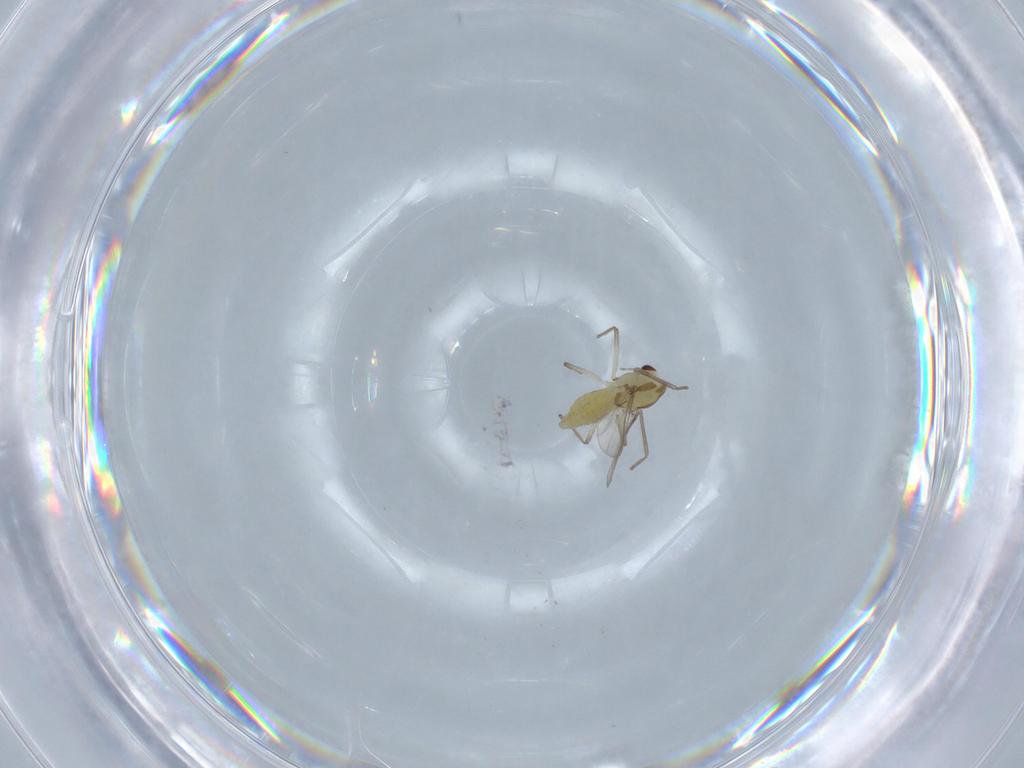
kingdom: Animalia
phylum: Arthropoda
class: Insecta
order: Diptera
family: Chironomidae
